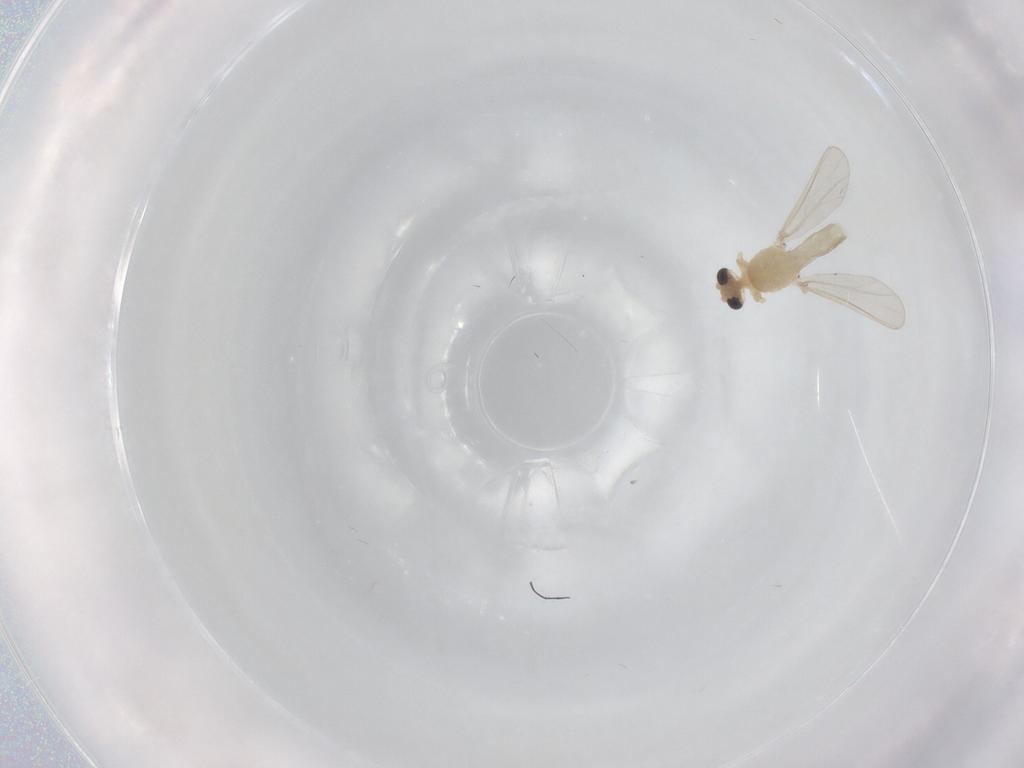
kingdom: Animalia
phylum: Arthropoda
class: Insecta
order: Diptera
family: Chironomidae
